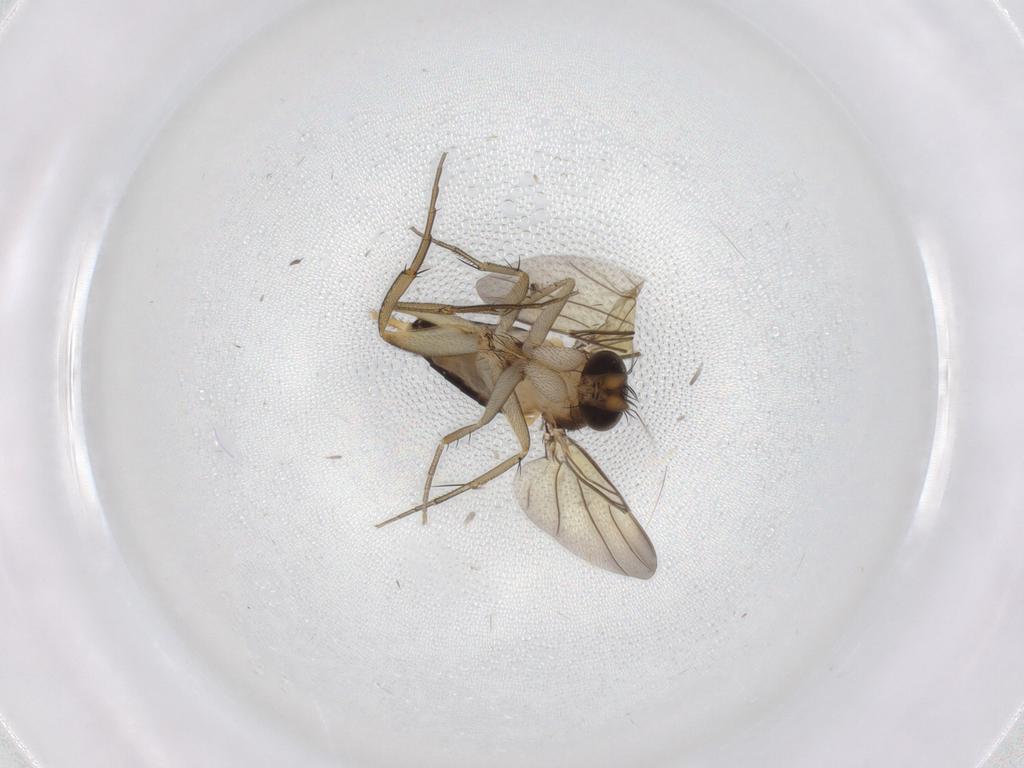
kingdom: Animalia
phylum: Arthropoda
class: Insecta
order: Diptera
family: Phoridae
